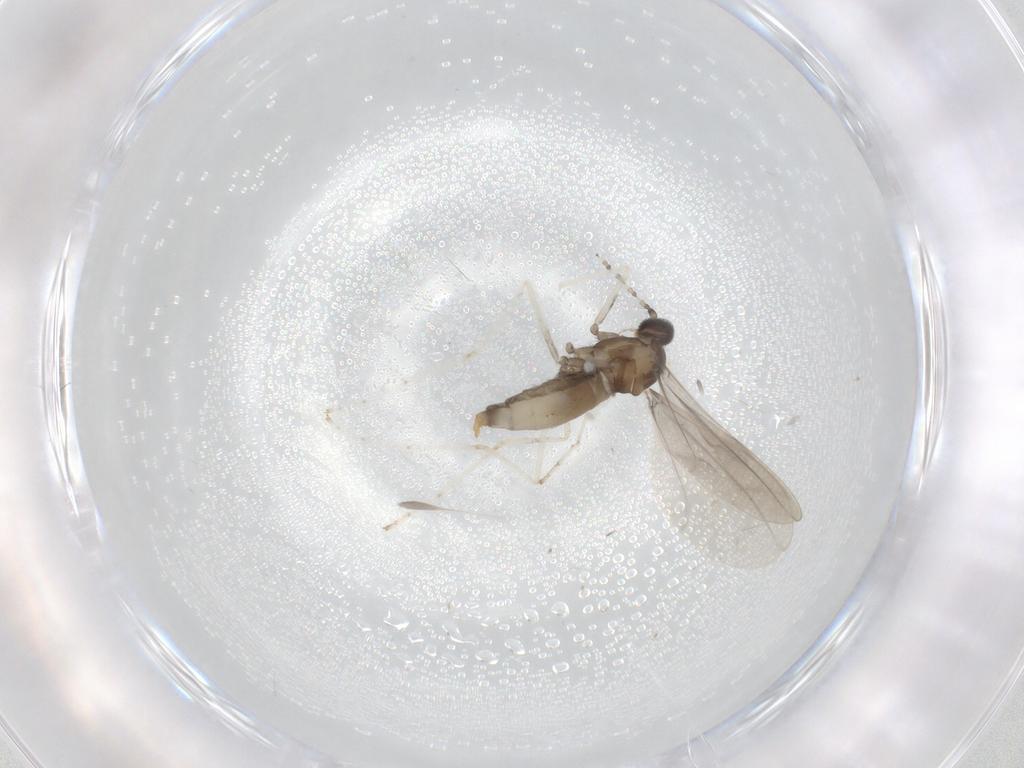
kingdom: Animalia
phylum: Arthropoda
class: Insecta
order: Diptera
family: Cecidomyiidae
